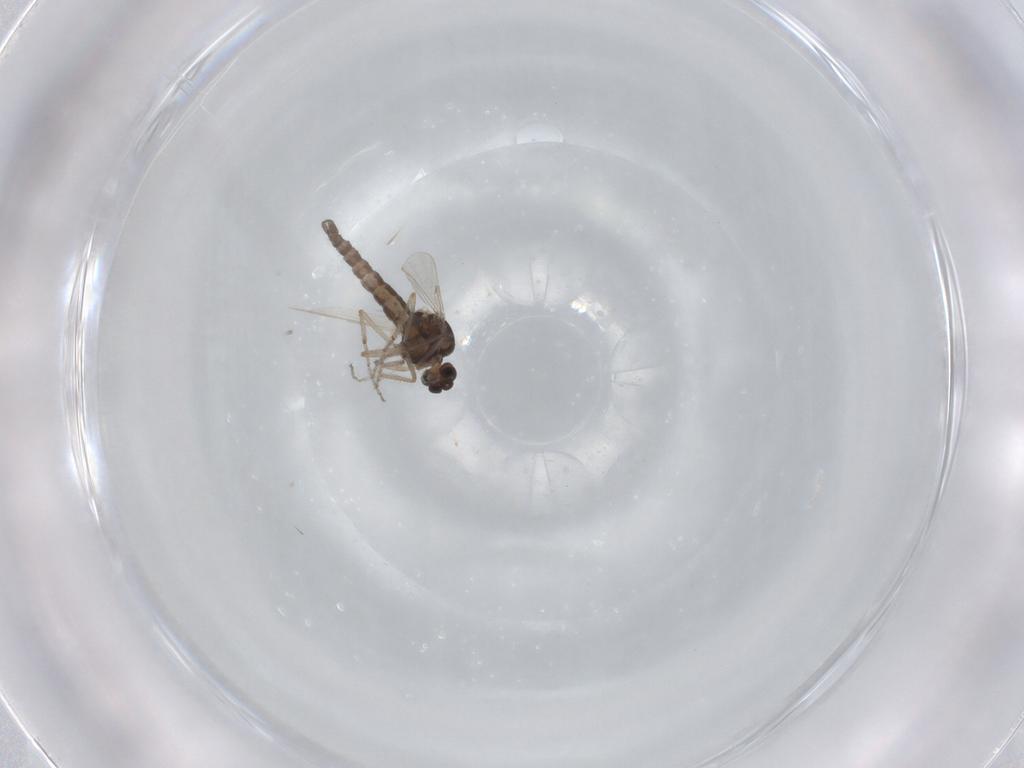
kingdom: Animalia
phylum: Arthropoda
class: Insecta
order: Diptera
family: Ceratopogonidae
